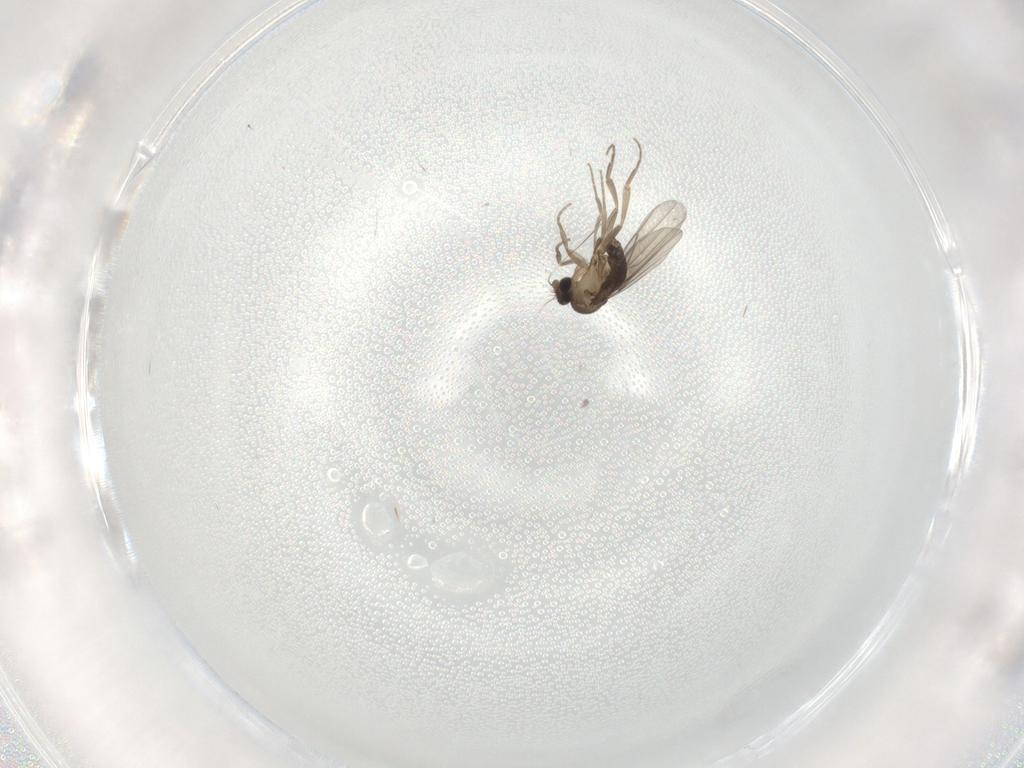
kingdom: Animalia
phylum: Arthropoda
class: Insecta
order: Diptera
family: Phoridae
